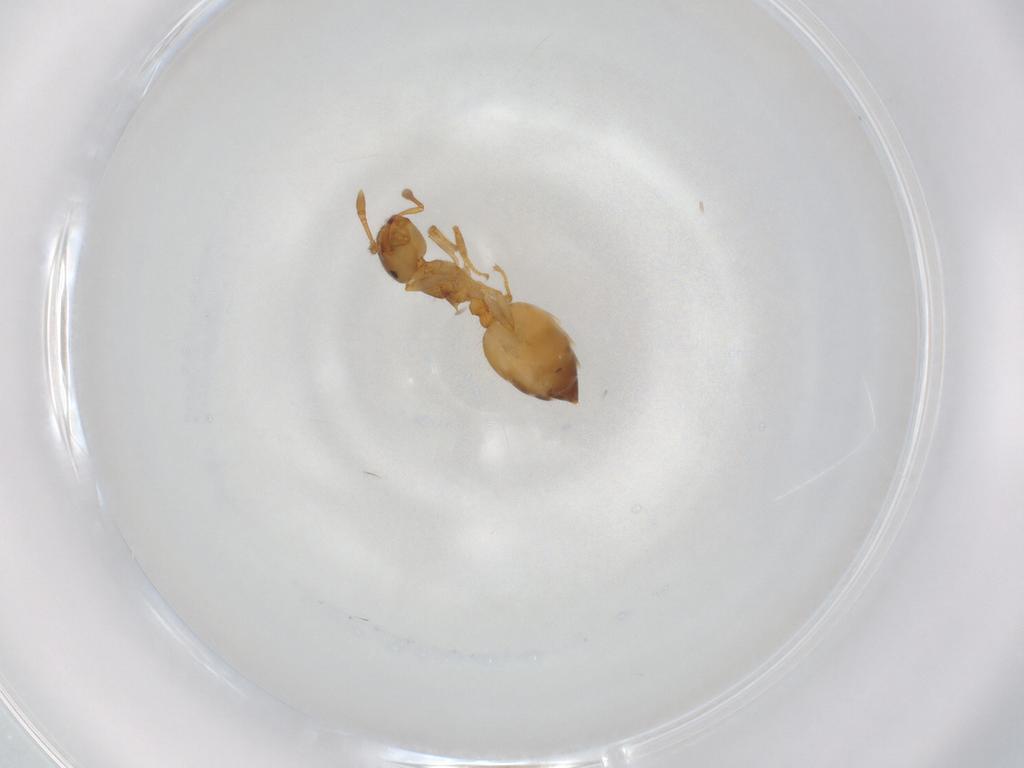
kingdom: Animalia
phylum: Arthropoda
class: Insecta
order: Hymenoptera
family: Formicidae
